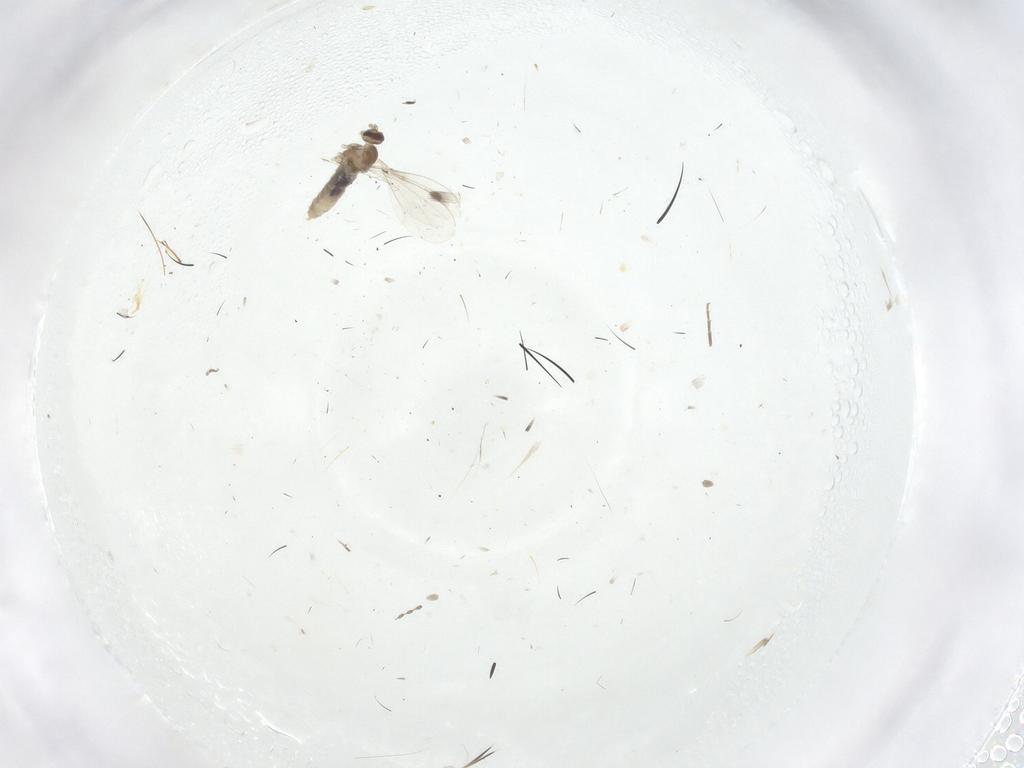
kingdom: Animalia
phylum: Arthropoda
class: Insecta
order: Diptera
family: Cecidomyiidae
